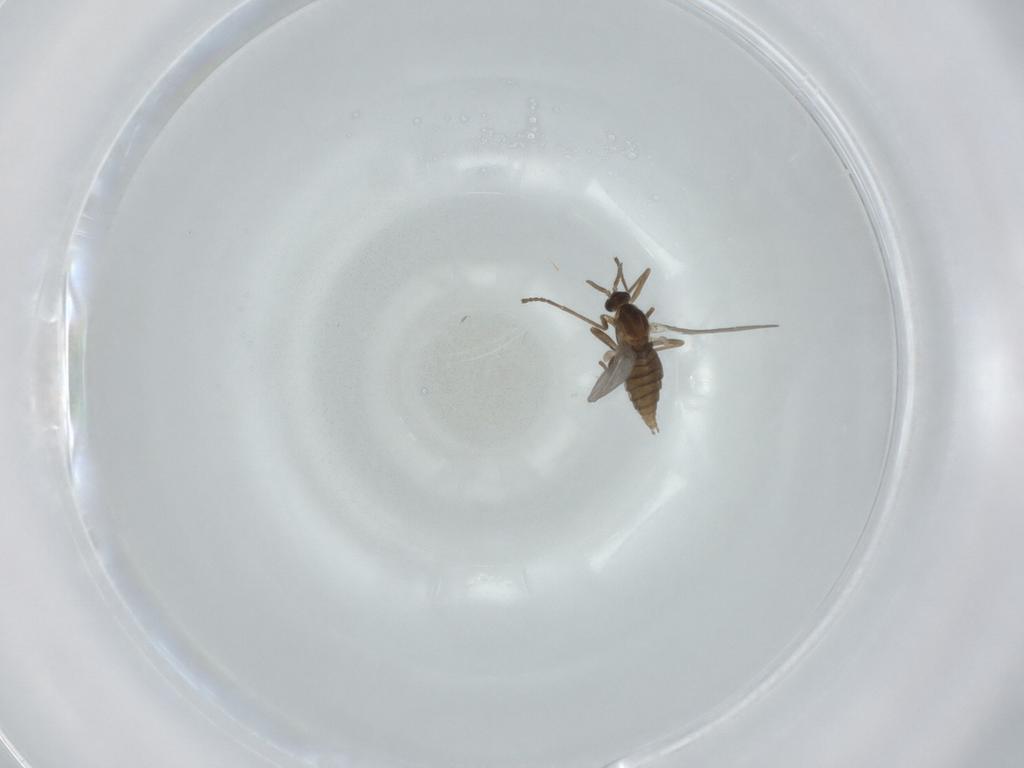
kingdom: Animalia
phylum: Arthropoda
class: Insecta
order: Diptera
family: Cecidomyiidae
